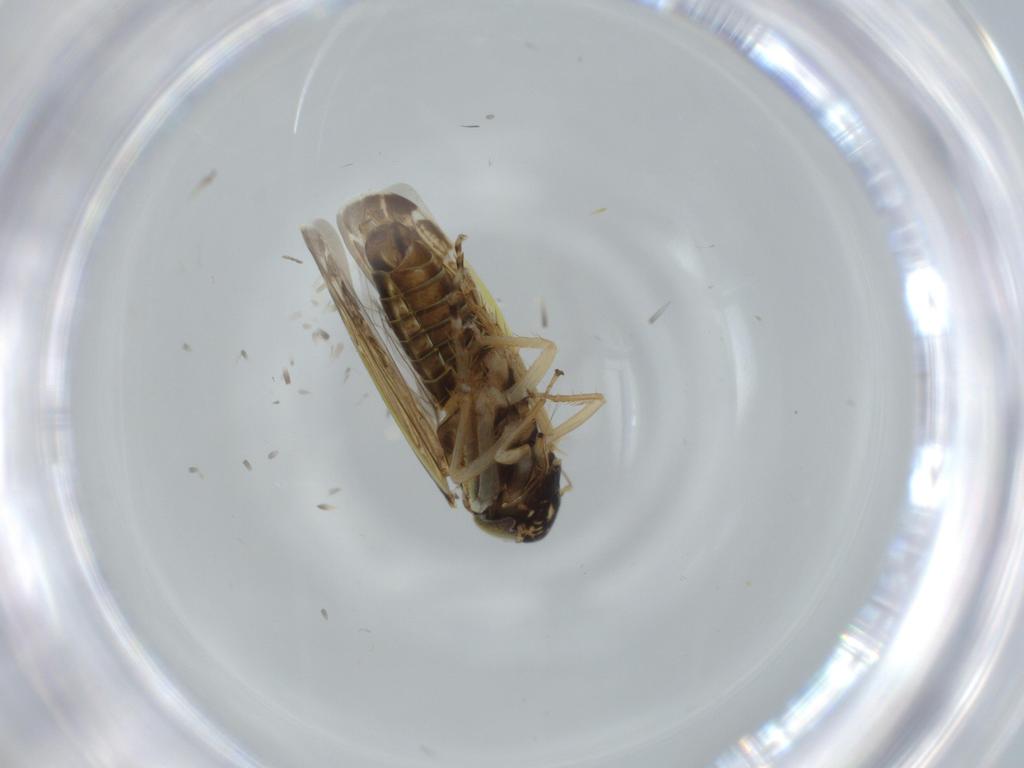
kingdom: Animalia
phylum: Arthropoda
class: Insecta
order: Hemiptera
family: Cicadellidae
